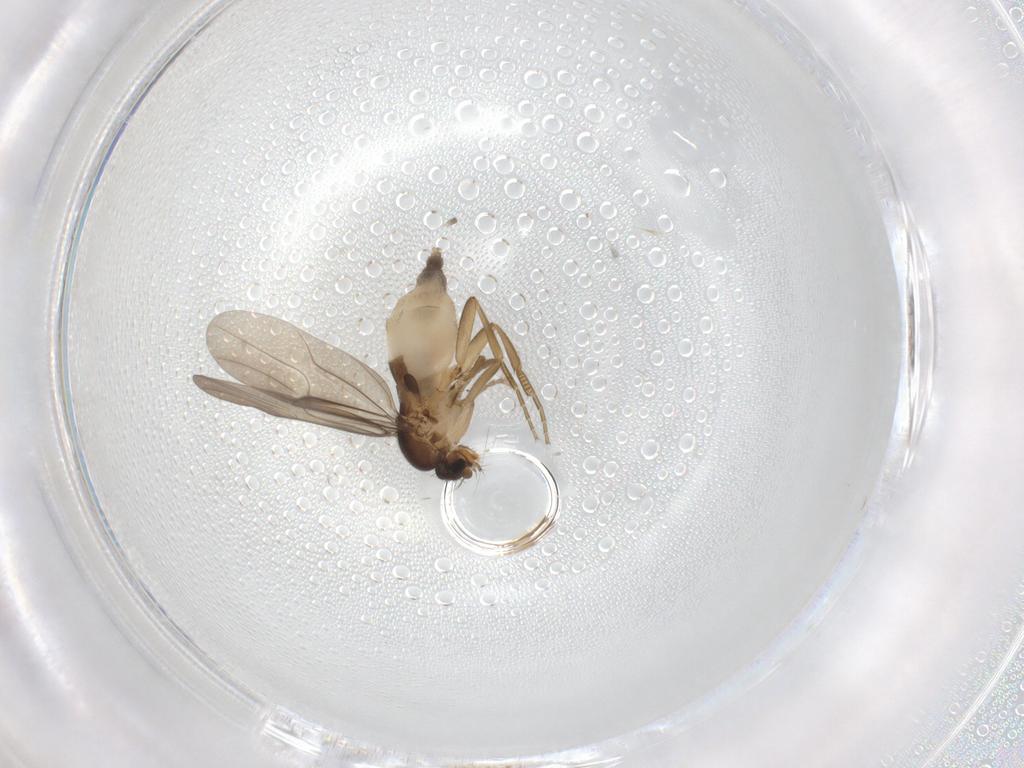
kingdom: Animalia
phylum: Arthropoda
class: Insecta
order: Diptera
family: Phoridae
